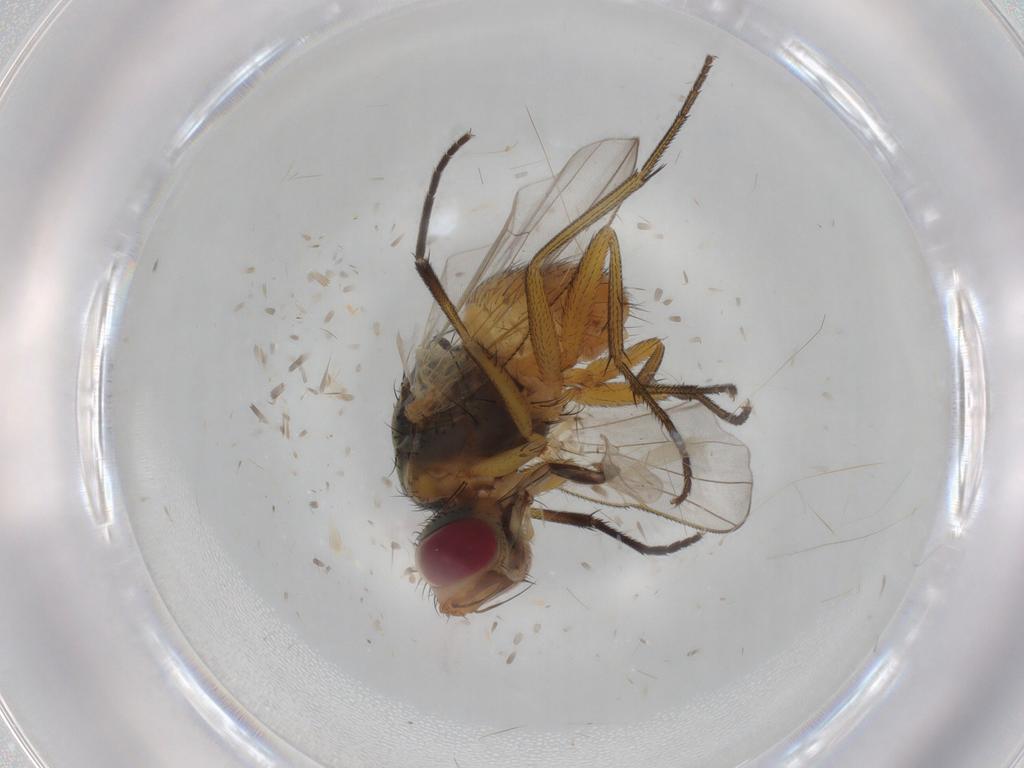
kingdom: Animalia
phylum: Arthropoda
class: Insecta
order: Diptera
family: Muscidae
